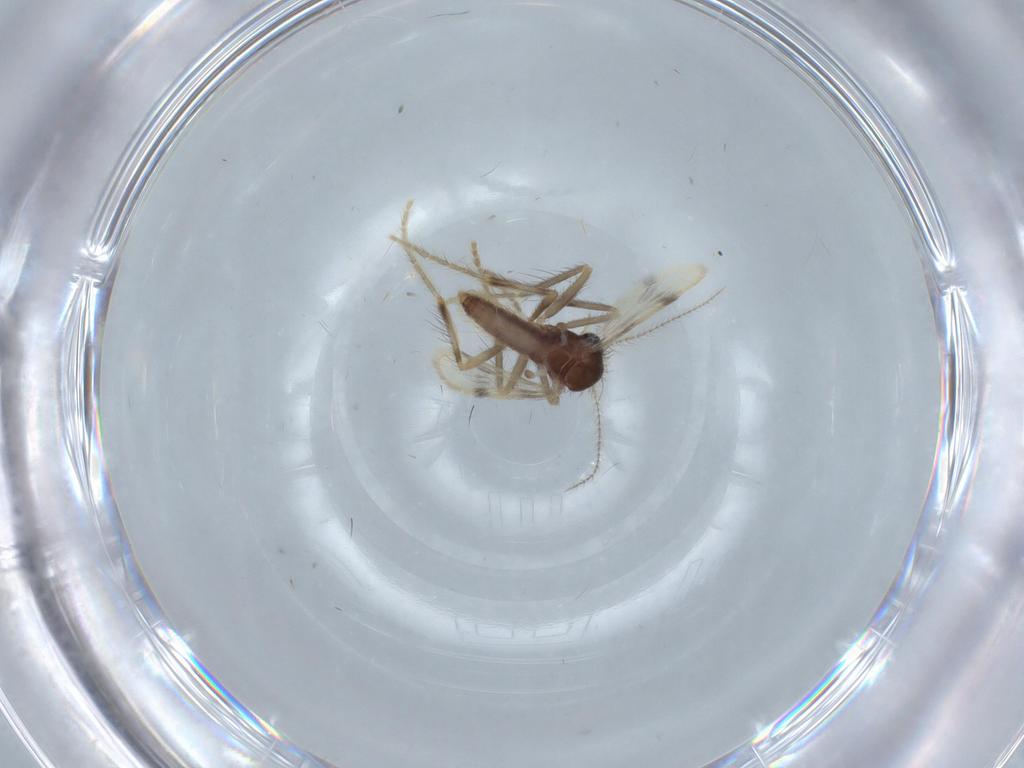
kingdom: Animalia
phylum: Arthropoda
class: Insecta
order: Diptera
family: Corethrellidae
